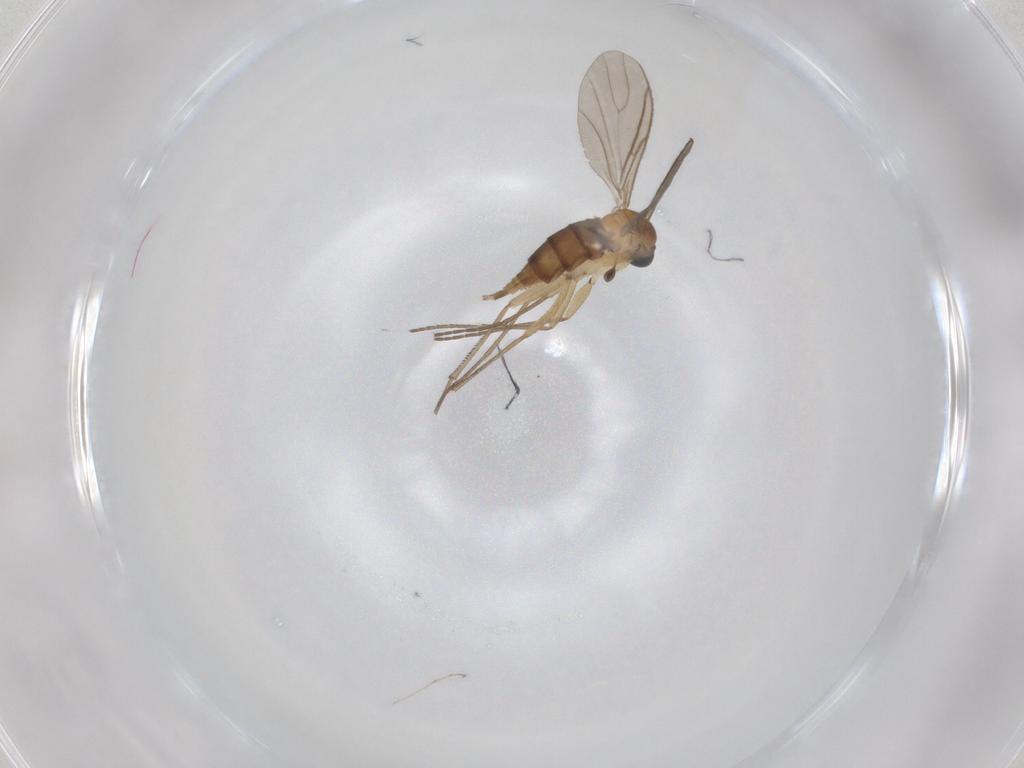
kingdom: Animalia
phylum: Arthropoda
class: Insecta
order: Diptera
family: Sciaridae
